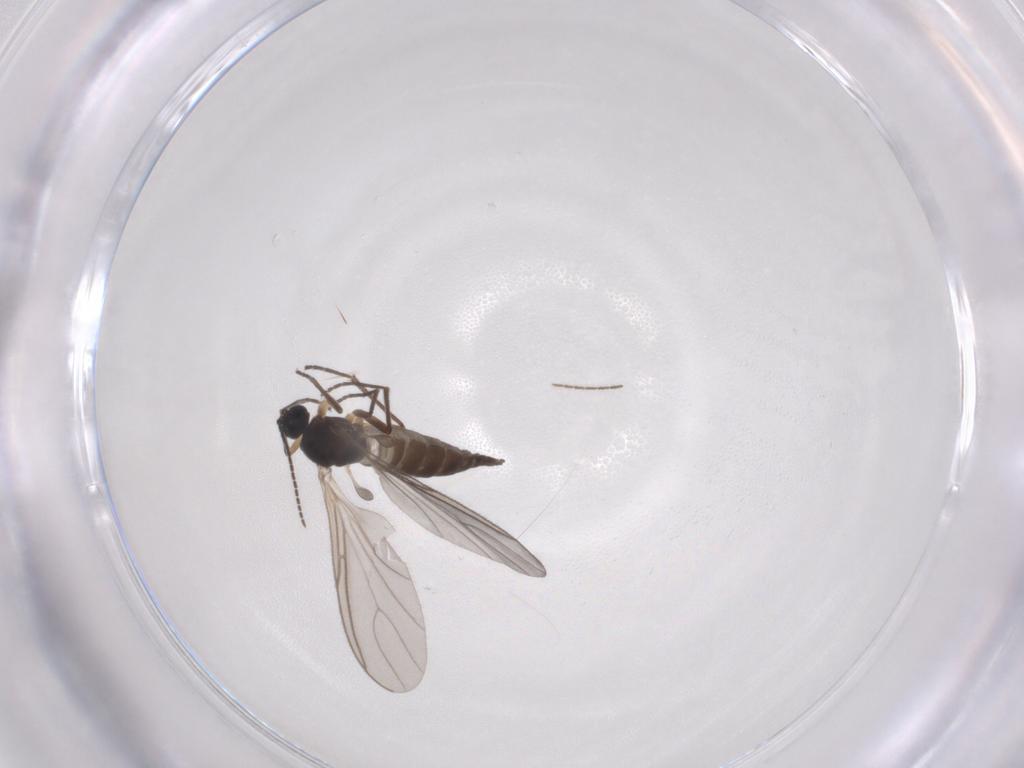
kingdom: Animalia
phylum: Arthropoda
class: Insecta
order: Diptera
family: Sciaridae
